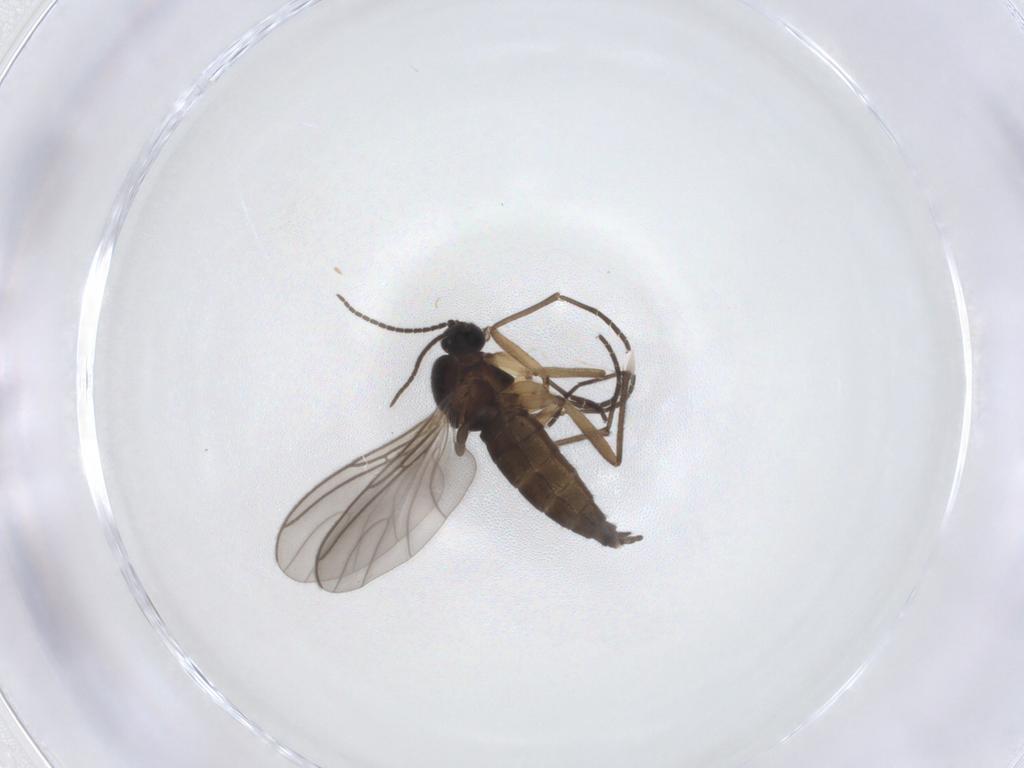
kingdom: Animalia
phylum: Arthropoda
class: Insecta
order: Diptera
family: Sciaridae
